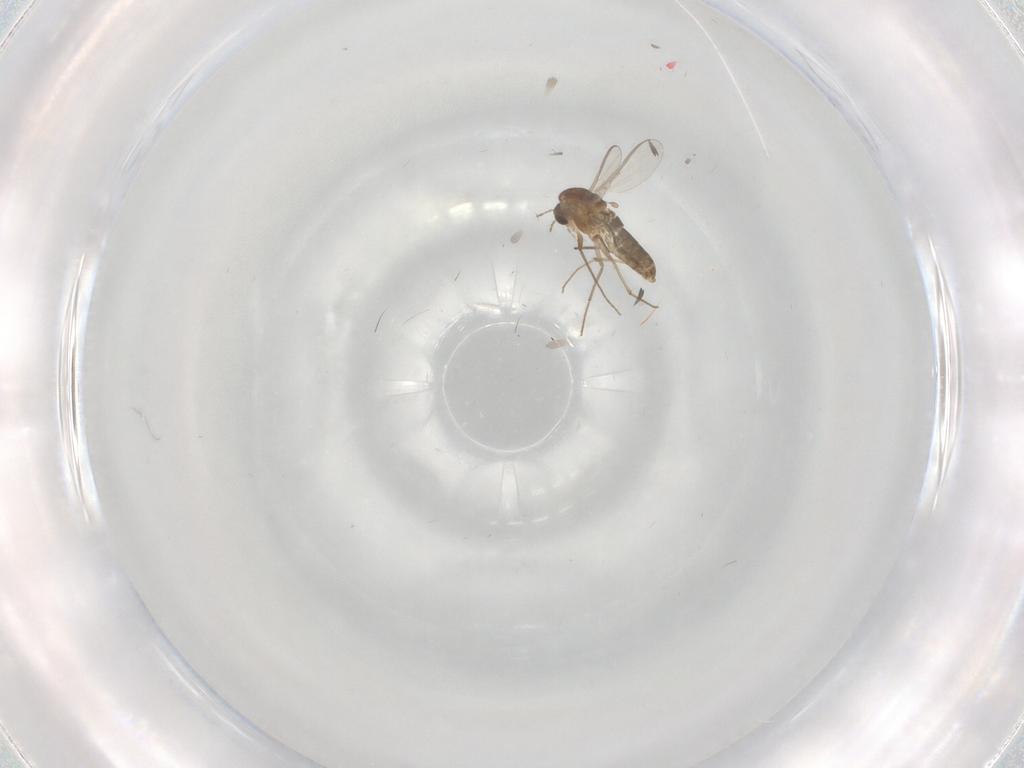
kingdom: Animalia
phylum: Arthropoda
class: Insecta
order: Diptera
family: Chironomidae
